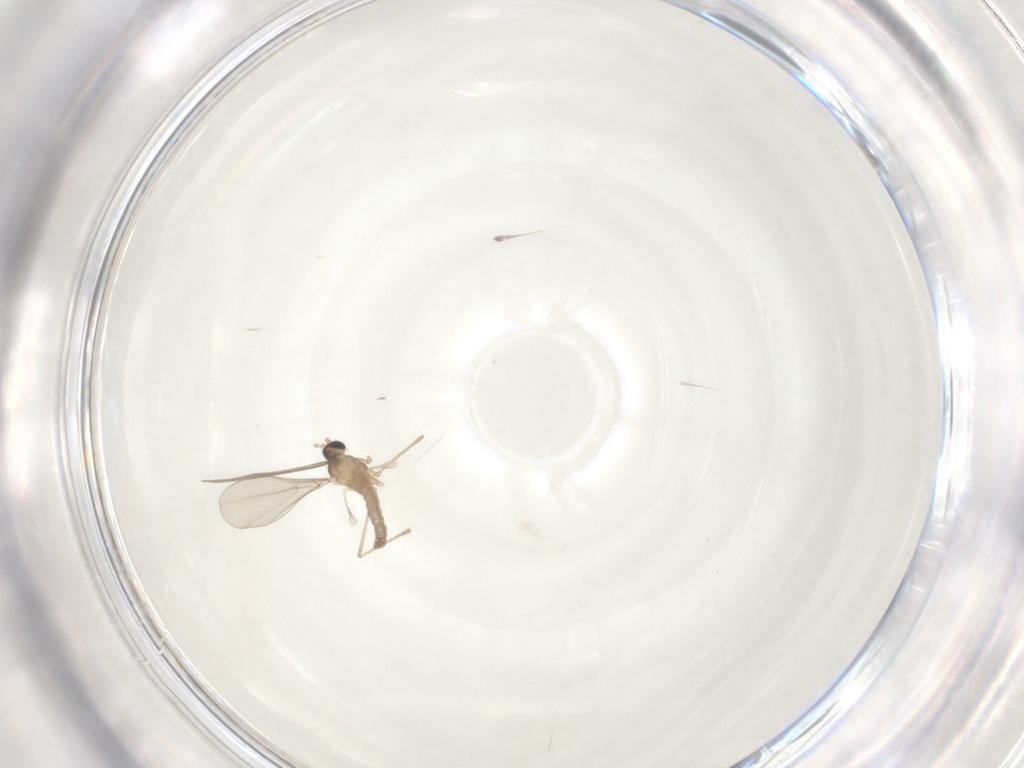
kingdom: Animalia
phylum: Arthropoda
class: Insecta
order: Diptera
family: Cecidomyiidae
